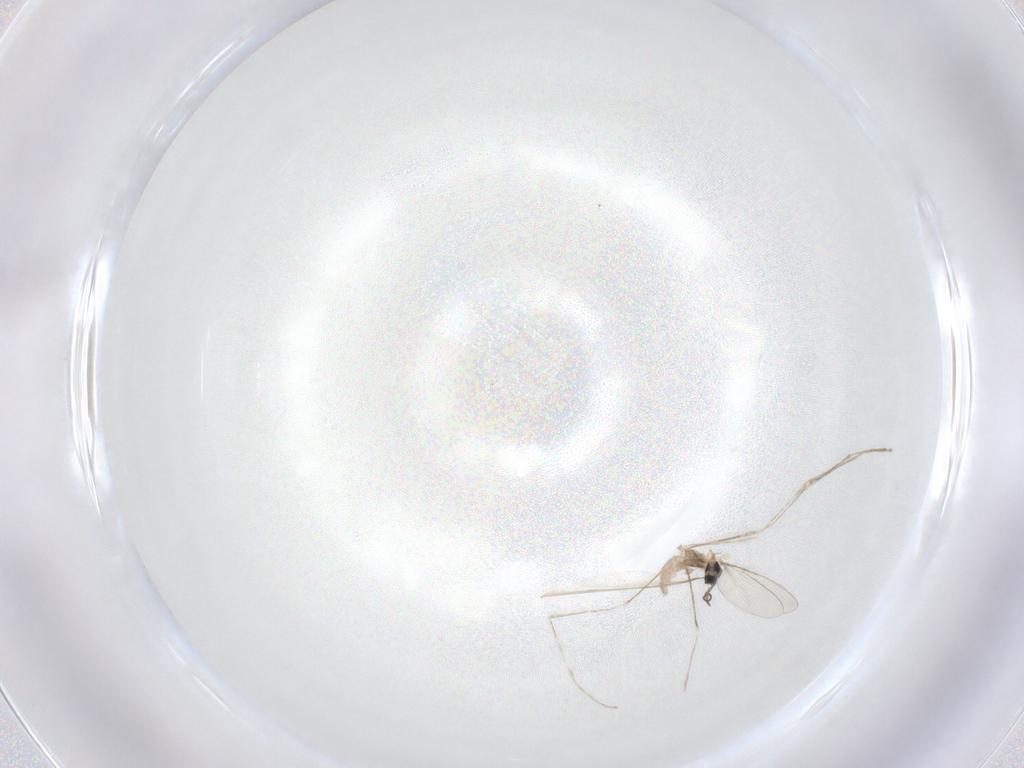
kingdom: Animalia
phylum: Arthropoda
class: Insecta
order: Diptera
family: Cecidomyiidae
